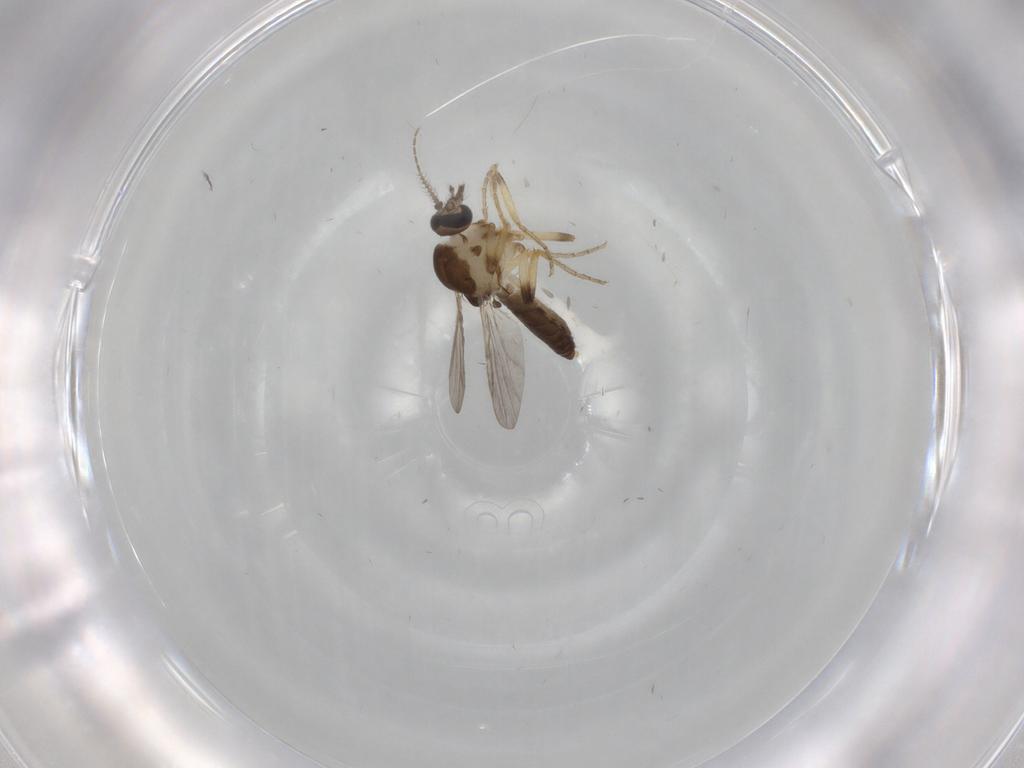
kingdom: Animalia
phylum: Arthropoda
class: Insecta
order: Diptera
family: Ceratopogonidae
